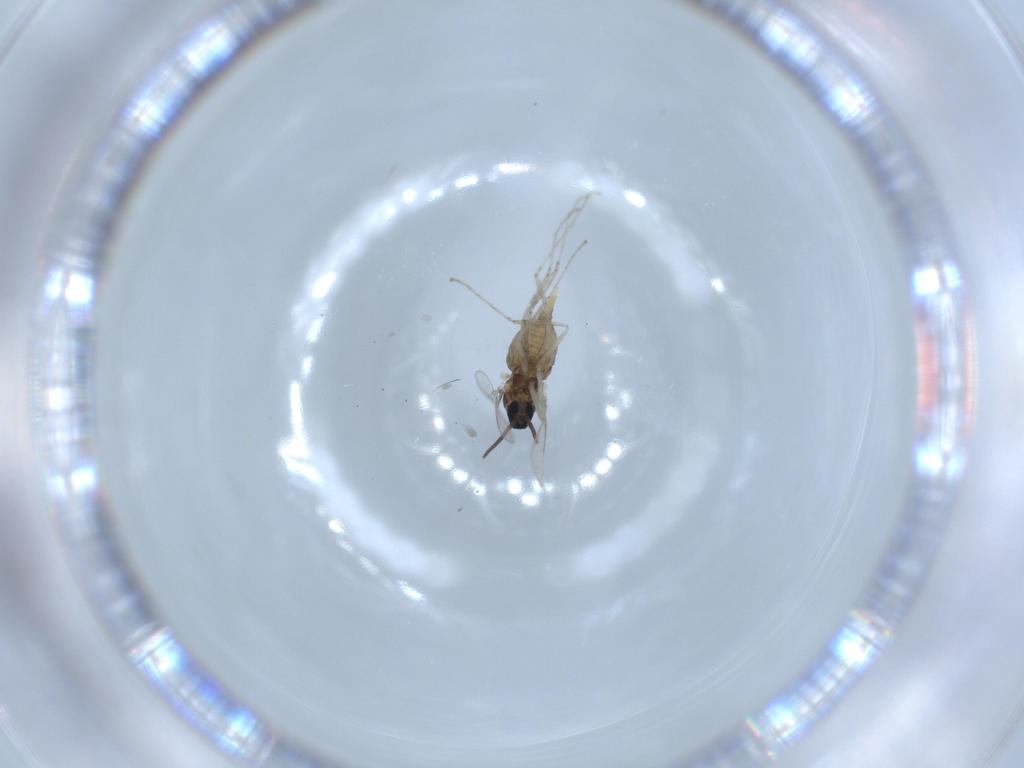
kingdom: Animalia
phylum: Arthropoda
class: Insecta
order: Diptera
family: Cecidomyiidae
